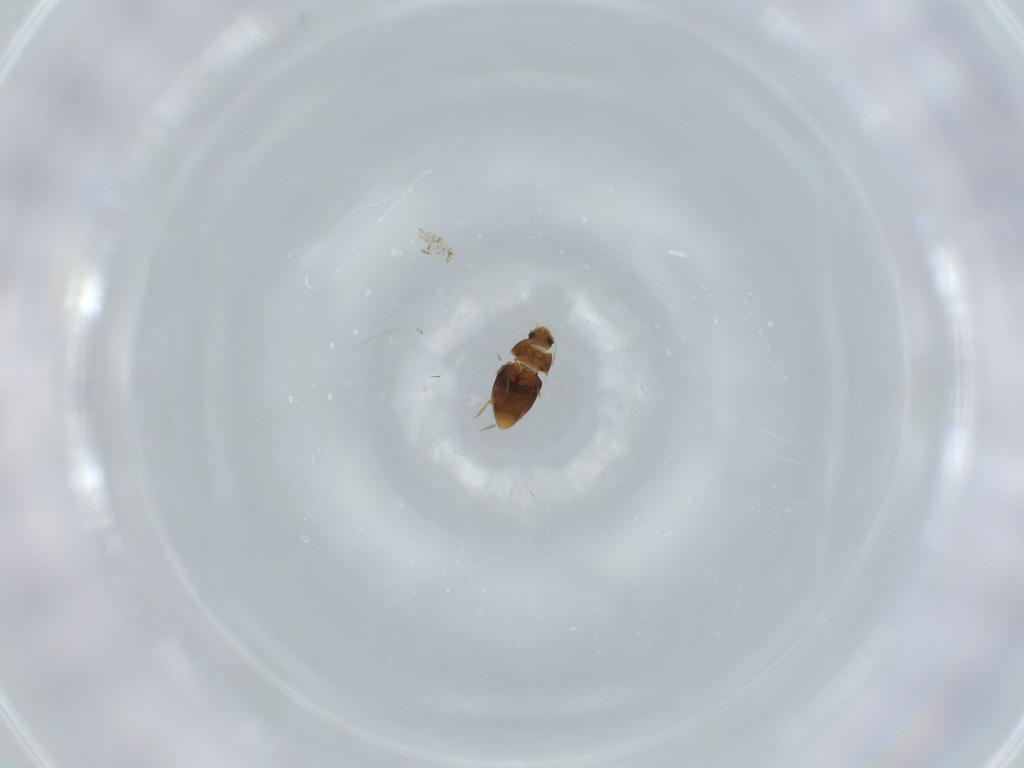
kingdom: Animalia
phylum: Arthropoda
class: Insecta
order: Coleoptera
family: Ptiliidae
